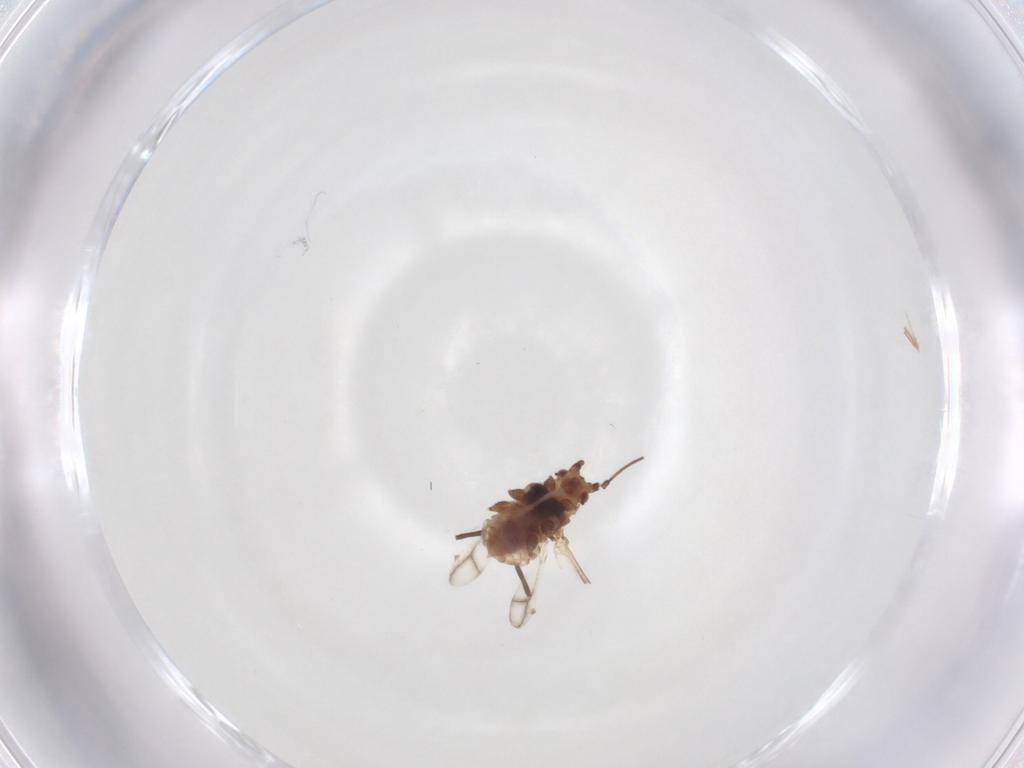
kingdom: Animalia
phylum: Arthropoda
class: Insecta
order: Hemiptera
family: Aphididae
